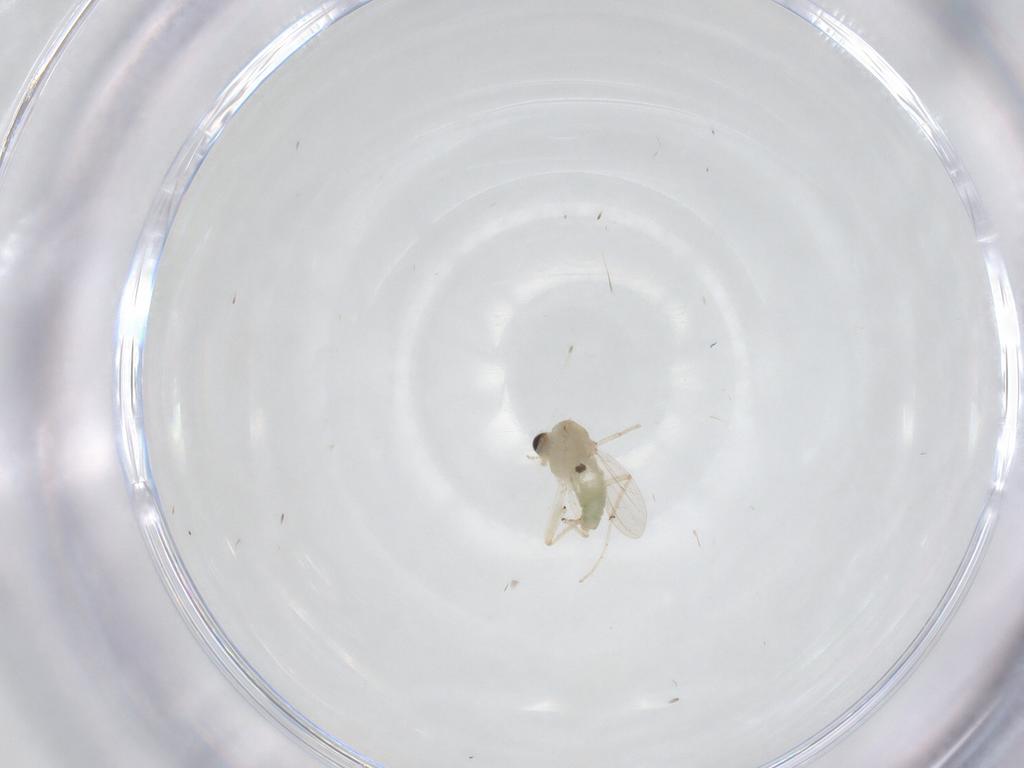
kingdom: Animalia
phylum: Arthropoda
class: Insecta
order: Diptera
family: Chironomidae
